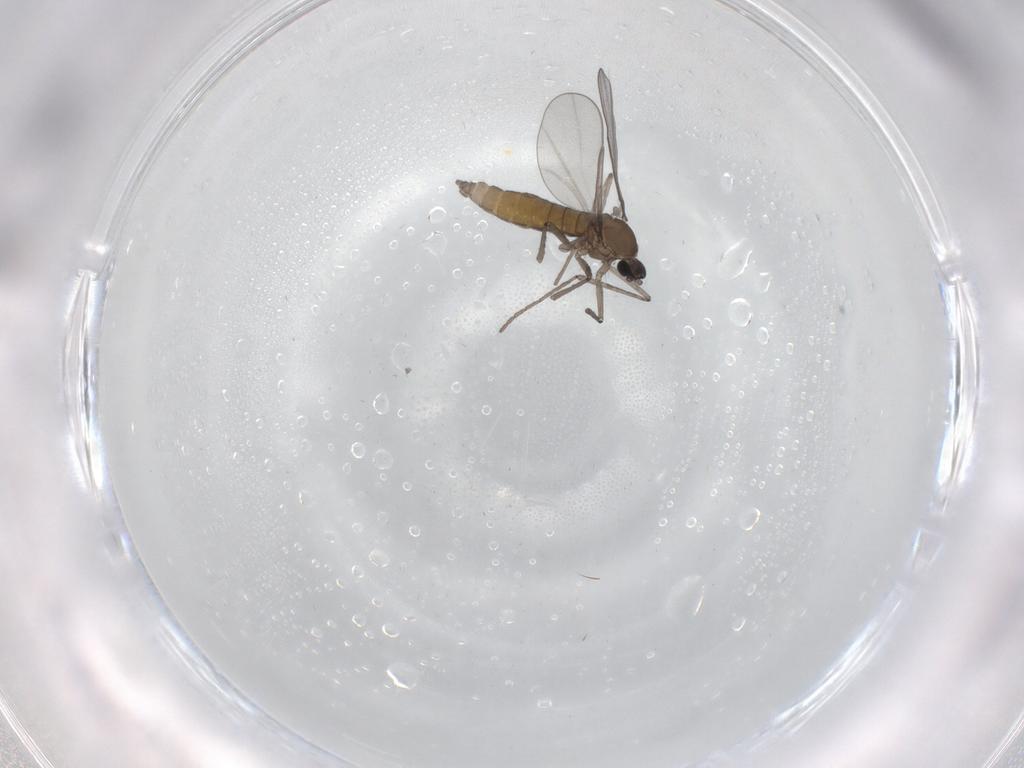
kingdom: Animalia
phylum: Arthropoda
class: Insecta
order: Diptera
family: Cecidomyiidae
